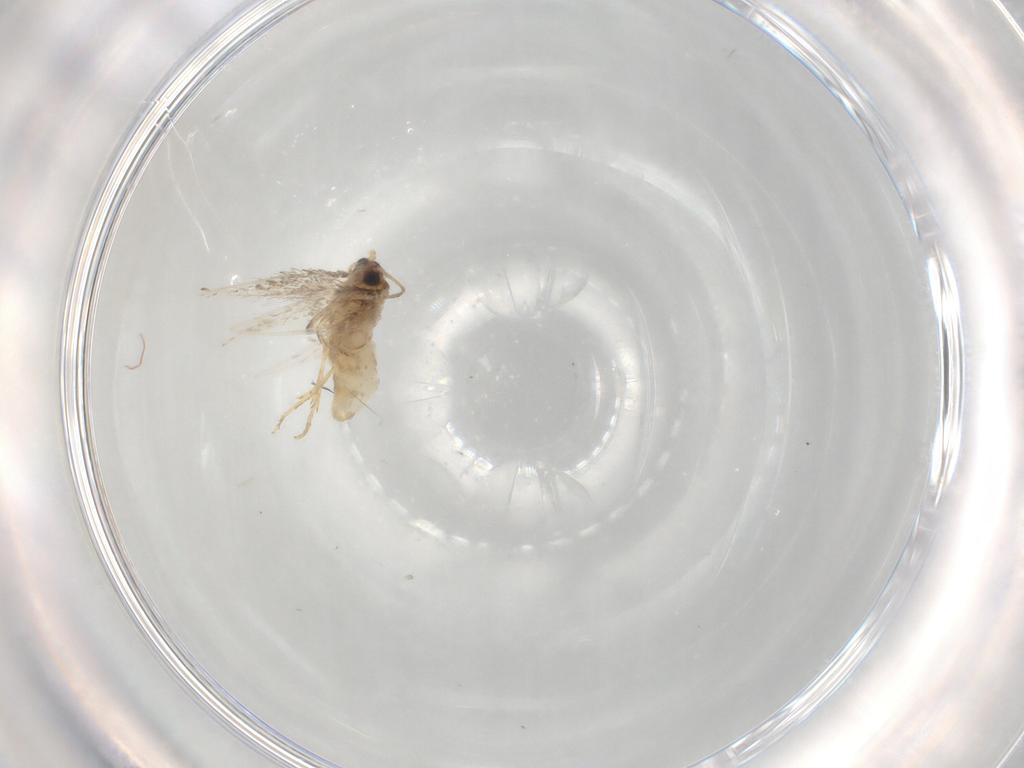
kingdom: Animalia
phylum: Arthropoda
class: Insecta
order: Lepidoptera
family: Nepticulidae
